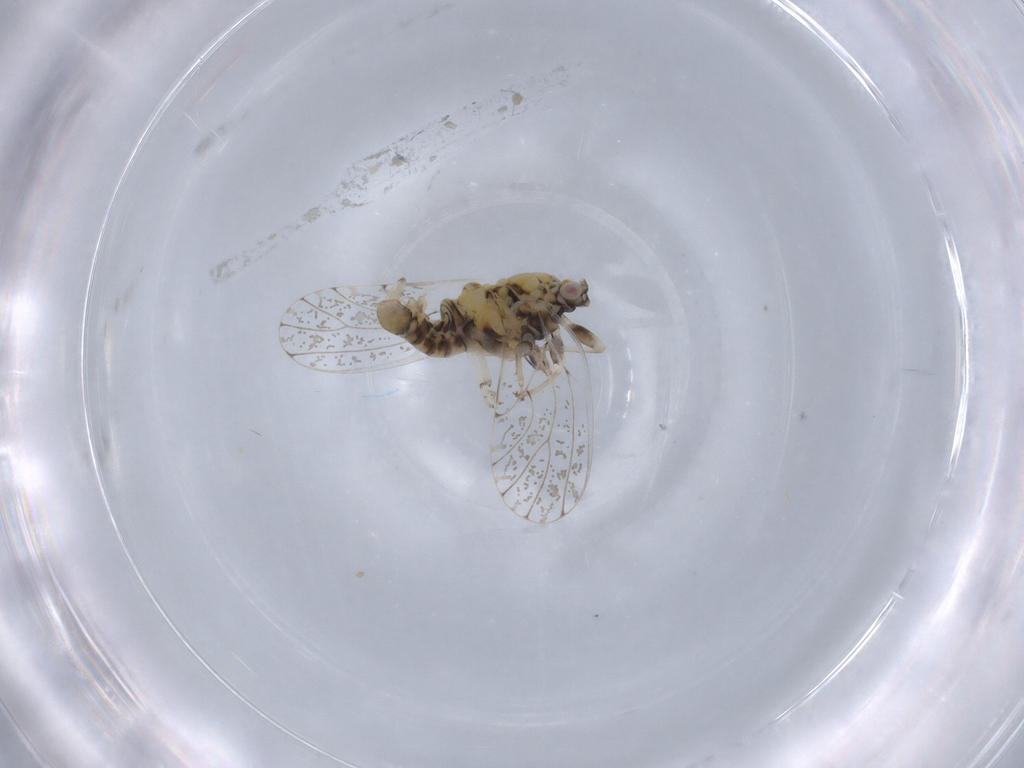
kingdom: Animalia
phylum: Arthropoda
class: Insecta
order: Hemiptera
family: Psyllidae
